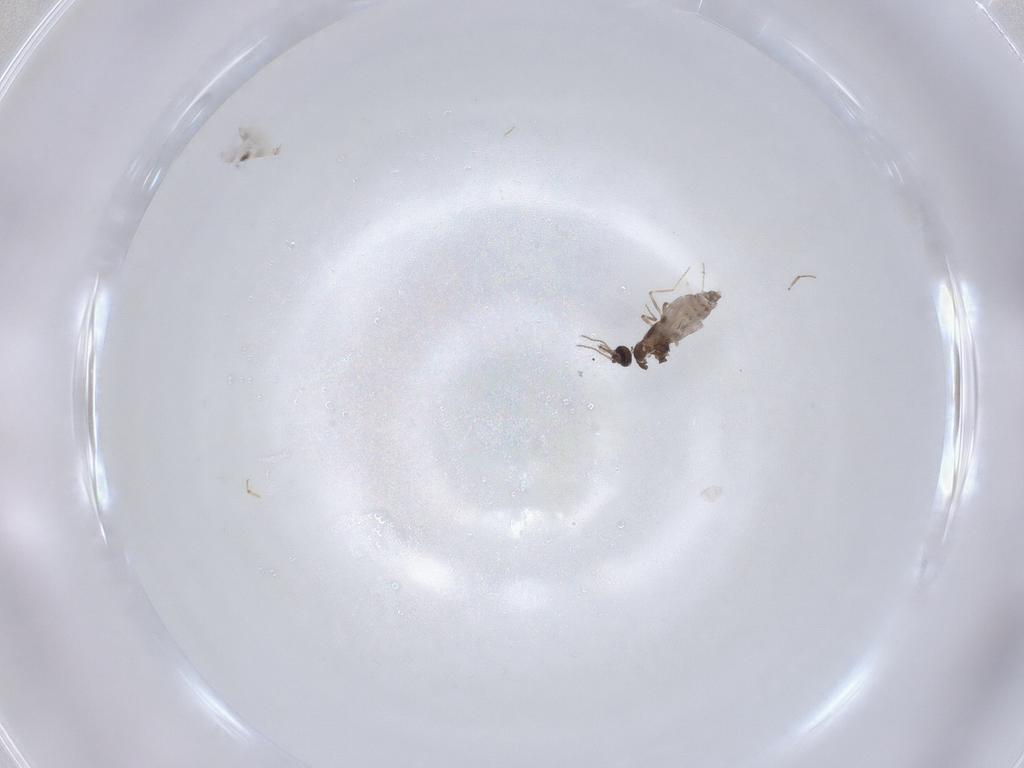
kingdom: Animalia
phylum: Arthropoda
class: Insecta
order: Diptera
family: Cecidomyiidae
